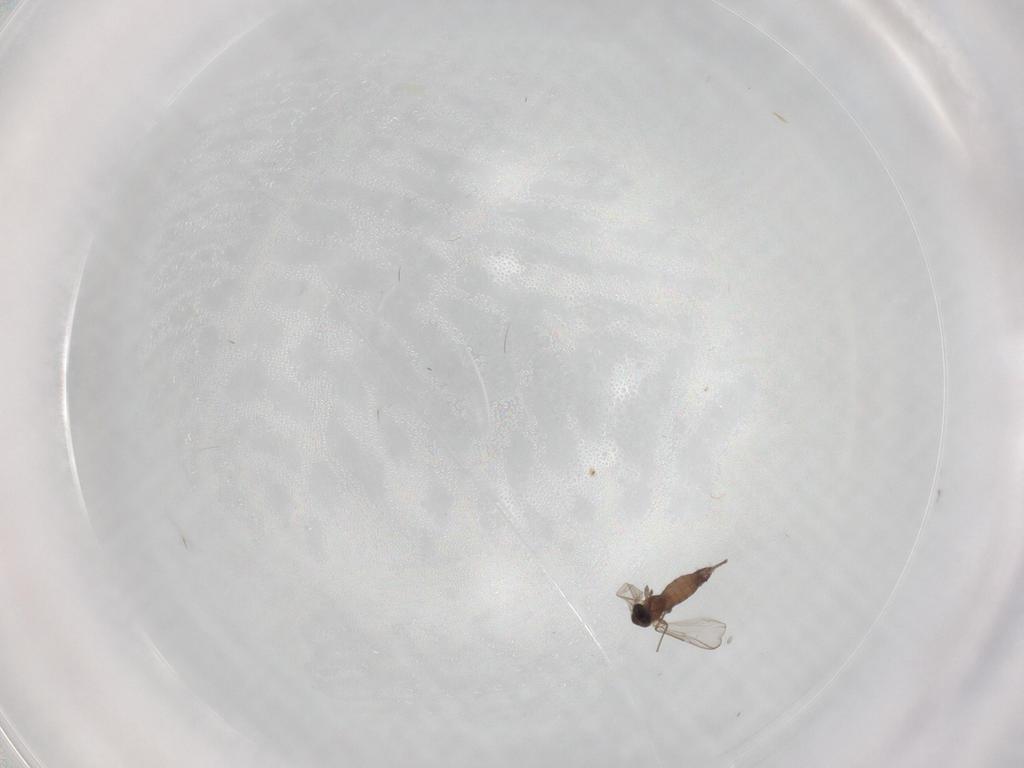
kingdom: Animalia
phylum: Arthropoda
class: Insecta
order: Diptera
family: Chironomidae
